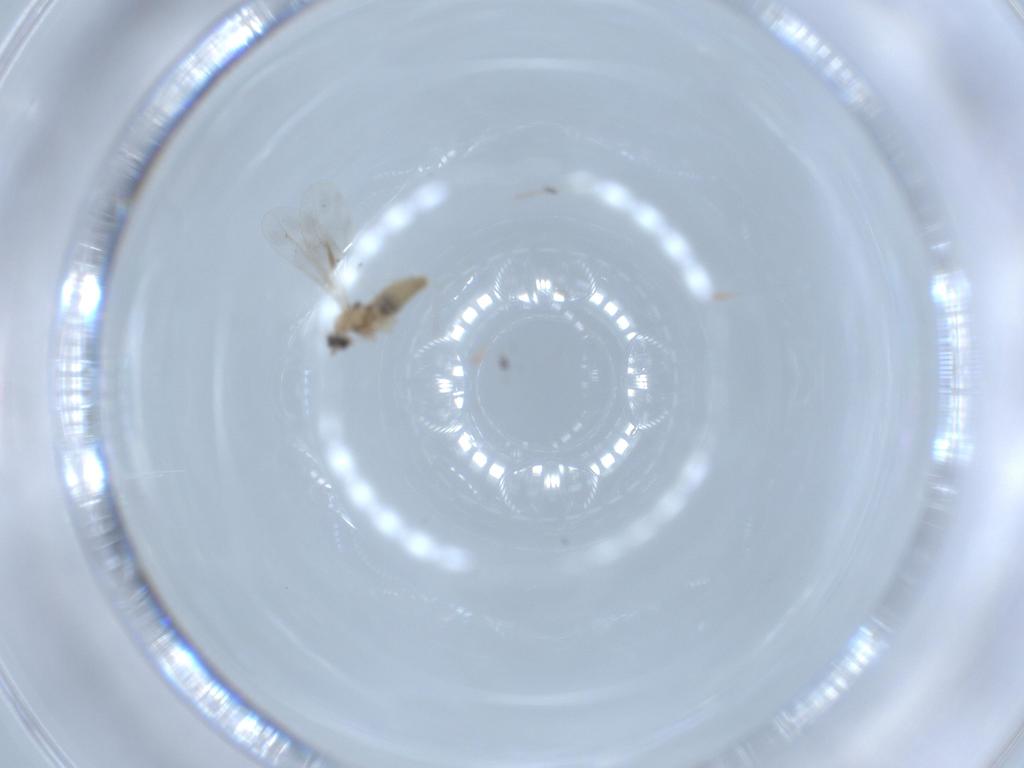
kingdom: Animalia
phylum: Arthropoda
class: Insecta
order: Diptera
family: Cecidomyiidae
